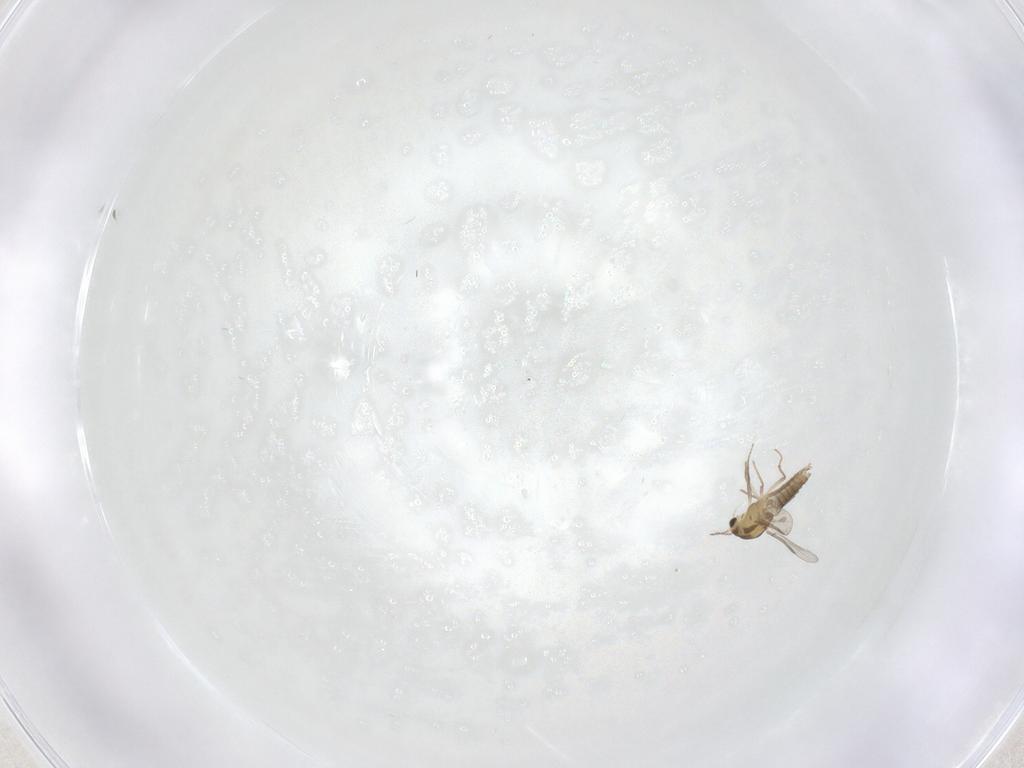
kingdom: Animalia
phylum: Arthropoda
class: Insecta
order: Diptera
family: Chironomidae
